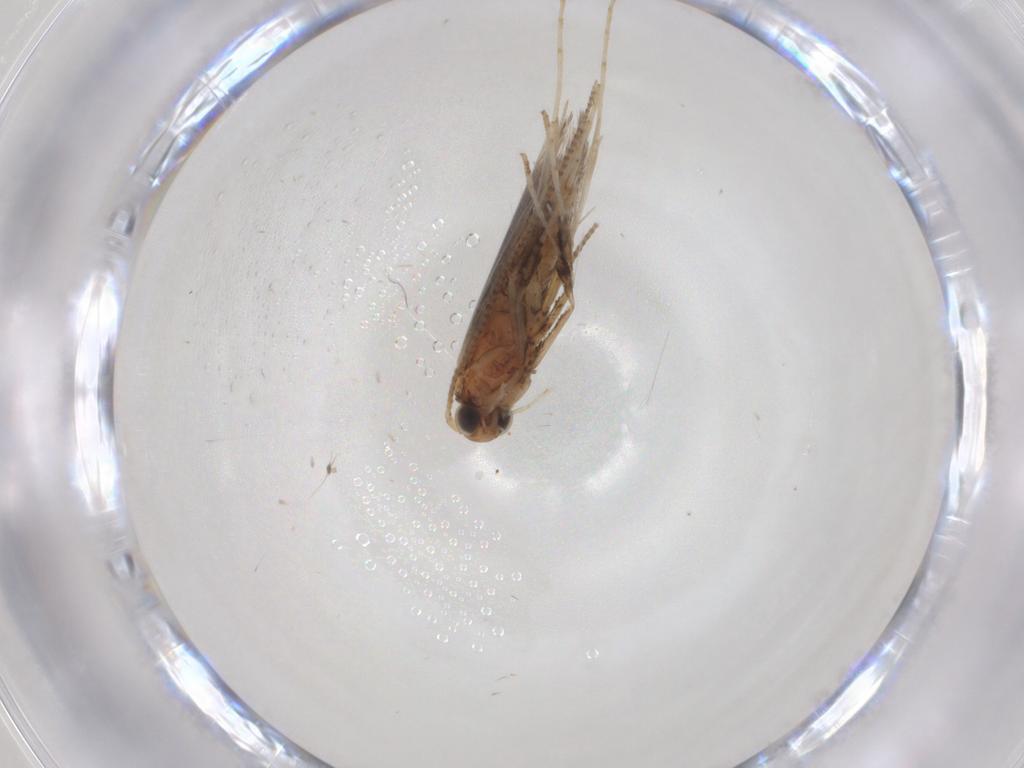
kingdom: Animalia
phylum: Arthropoda
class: Insecta
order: Lepidoptera
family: Gracillariidae
